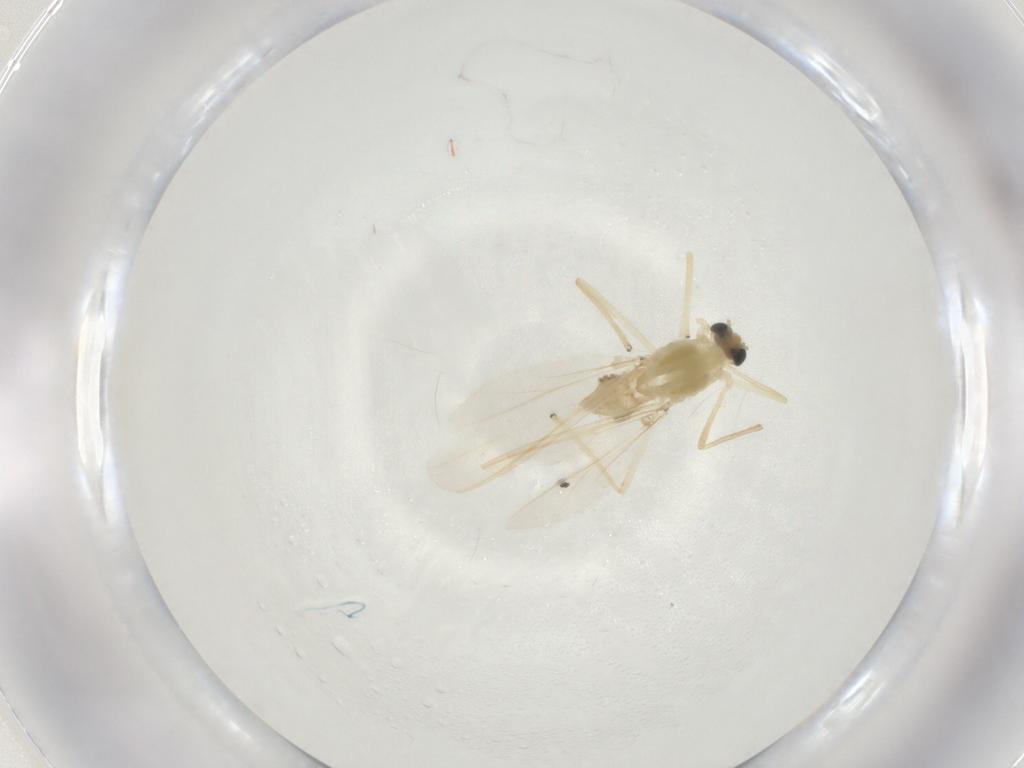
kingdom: Animalia
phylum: Arthropoda
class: Insecta
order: Diptera
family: Chironomidae
